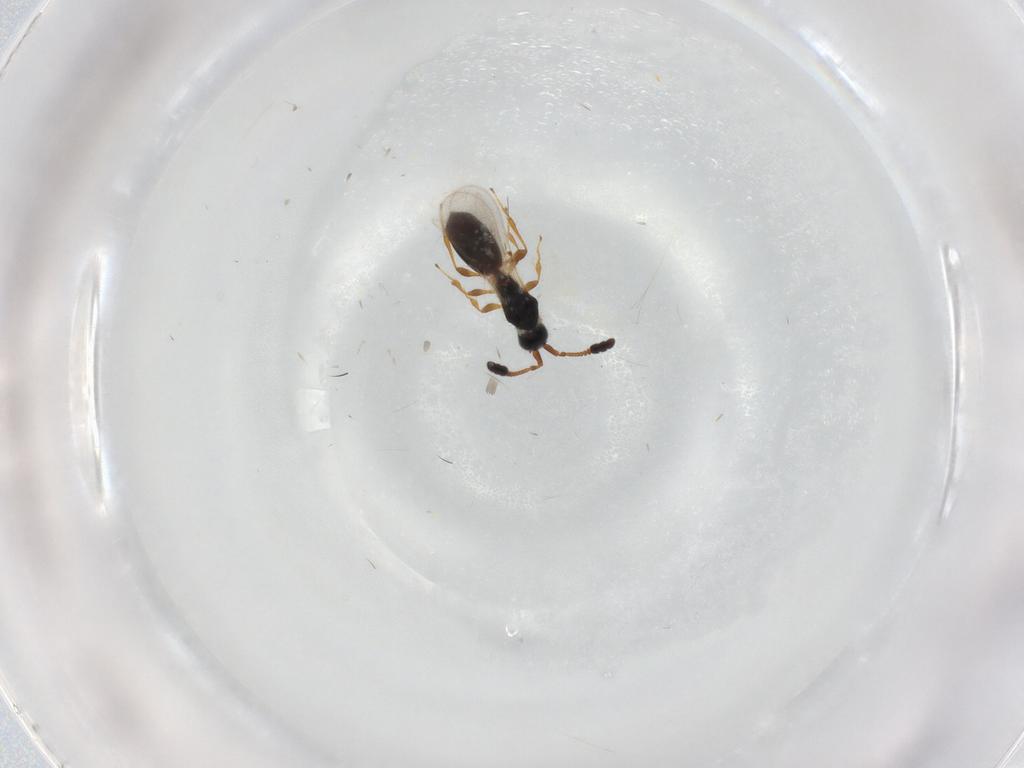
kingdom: Animalia
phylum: Arthropoda
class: Insecta
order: Hymenoptera
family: Diapriidae
